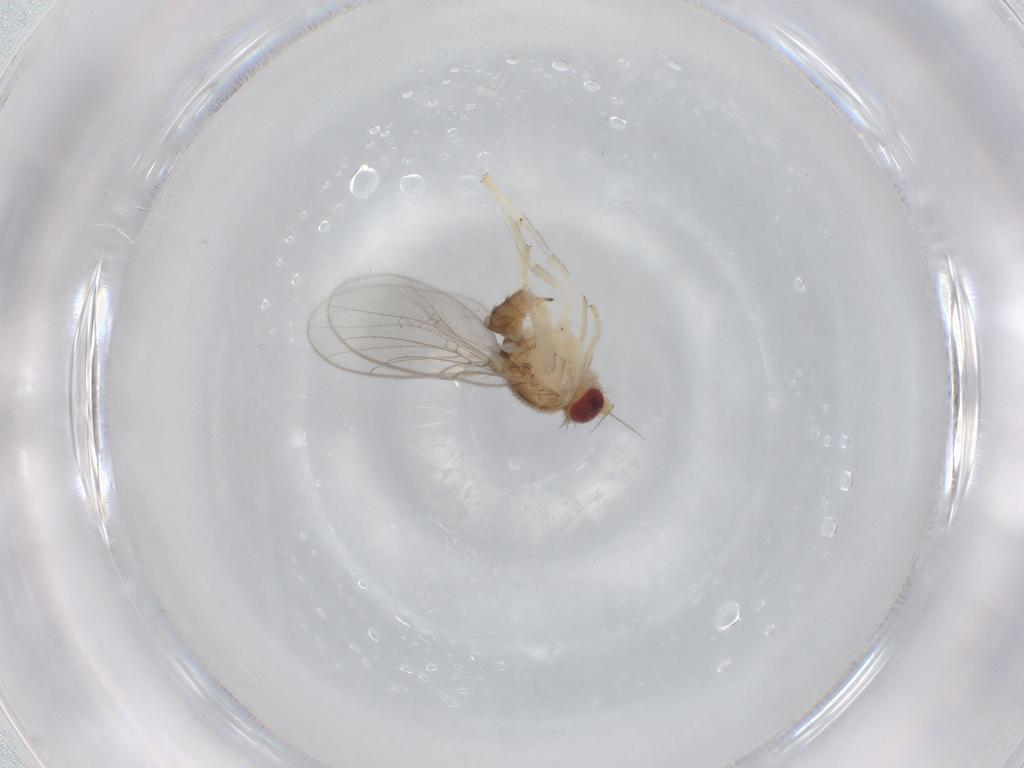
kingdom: Animalia
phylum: Arthropoda
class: Insecta
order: Diptera
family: Chloropidae
